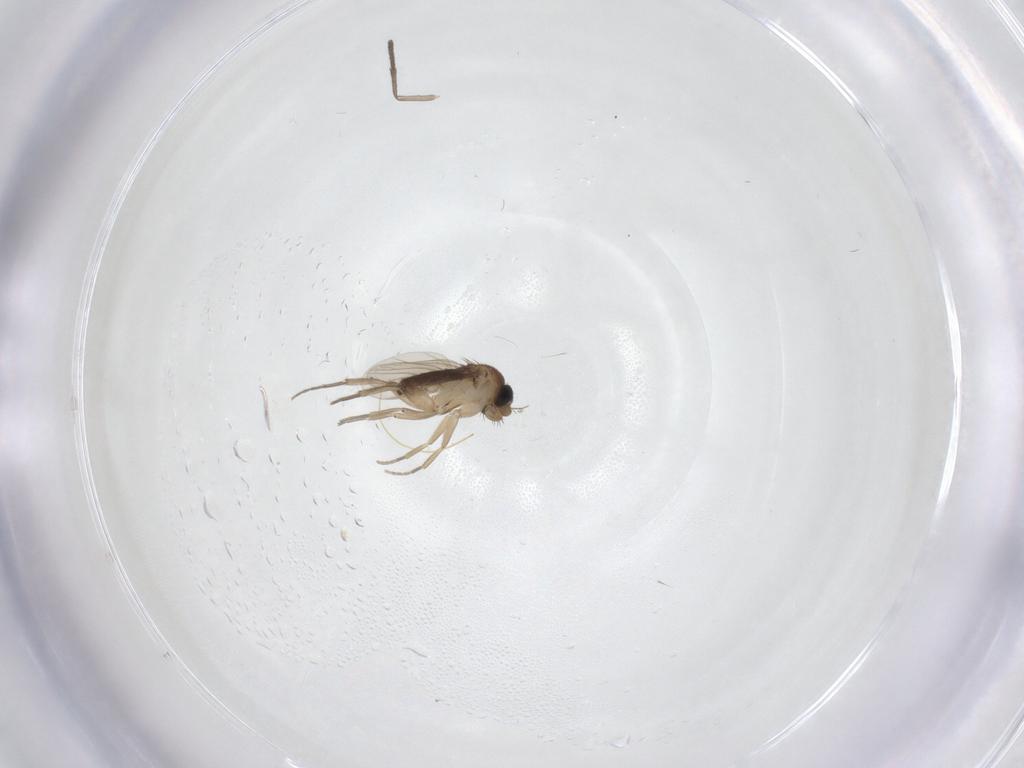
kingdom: Animalia
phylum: Arthropoda
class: Insecta
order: Diptera
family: Phoridae
